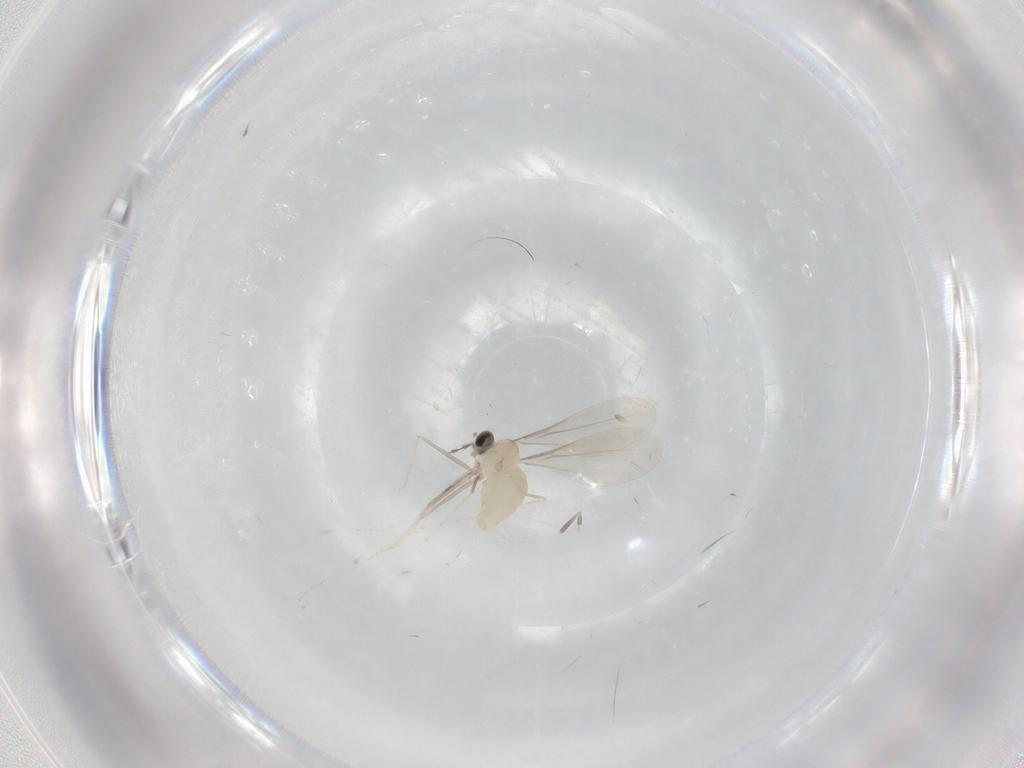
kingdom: Animalia
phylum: Arthropoda
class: Insecta
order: Diptera
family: Cecidomyiidae
